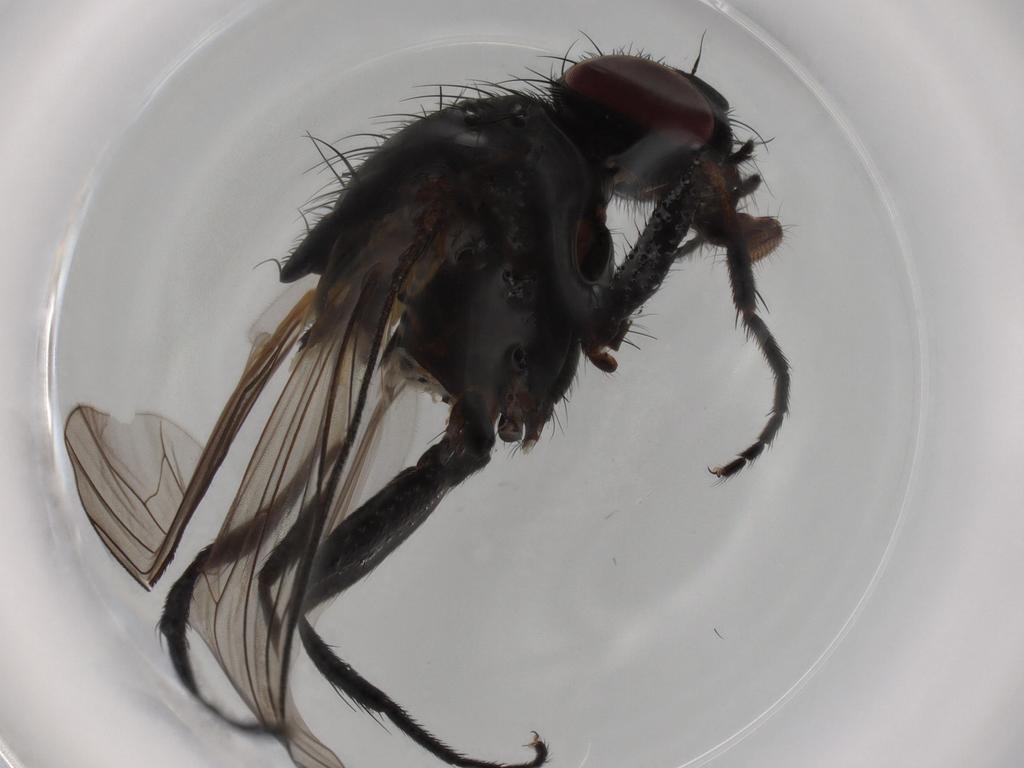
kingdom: Animalia
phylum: Arthropoda
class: Insecta
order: Diptera
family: Hybotidae
